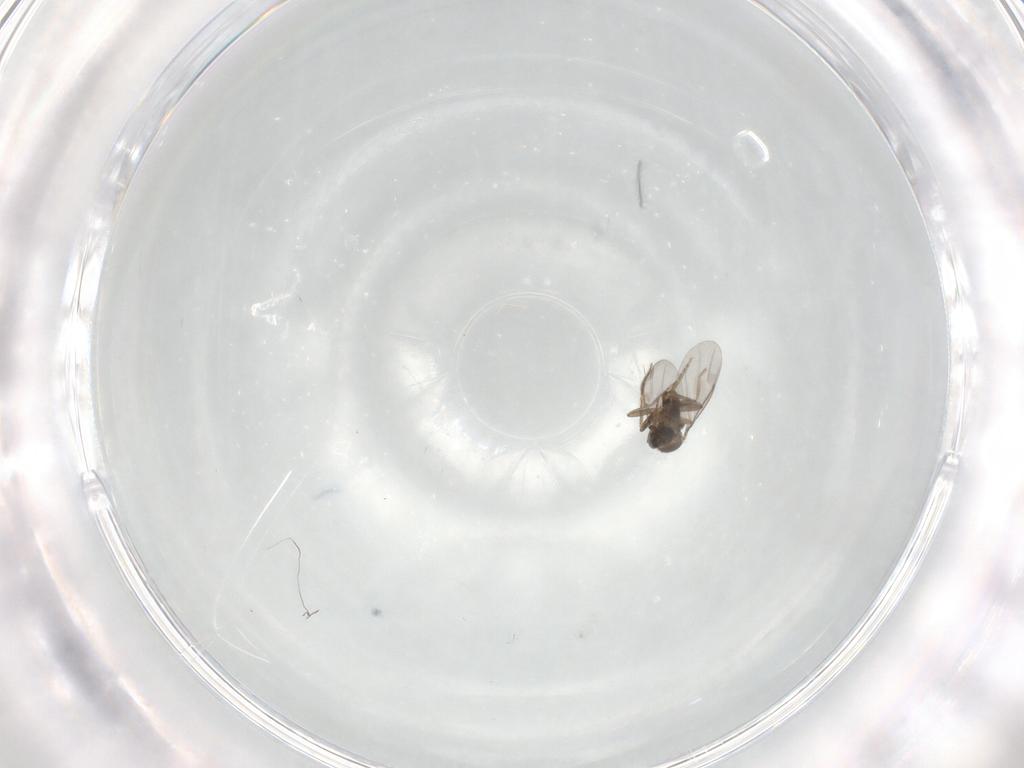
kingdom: Animalia
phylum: Arthropoda
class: Insecta
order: Diptera
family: Psychodidae
